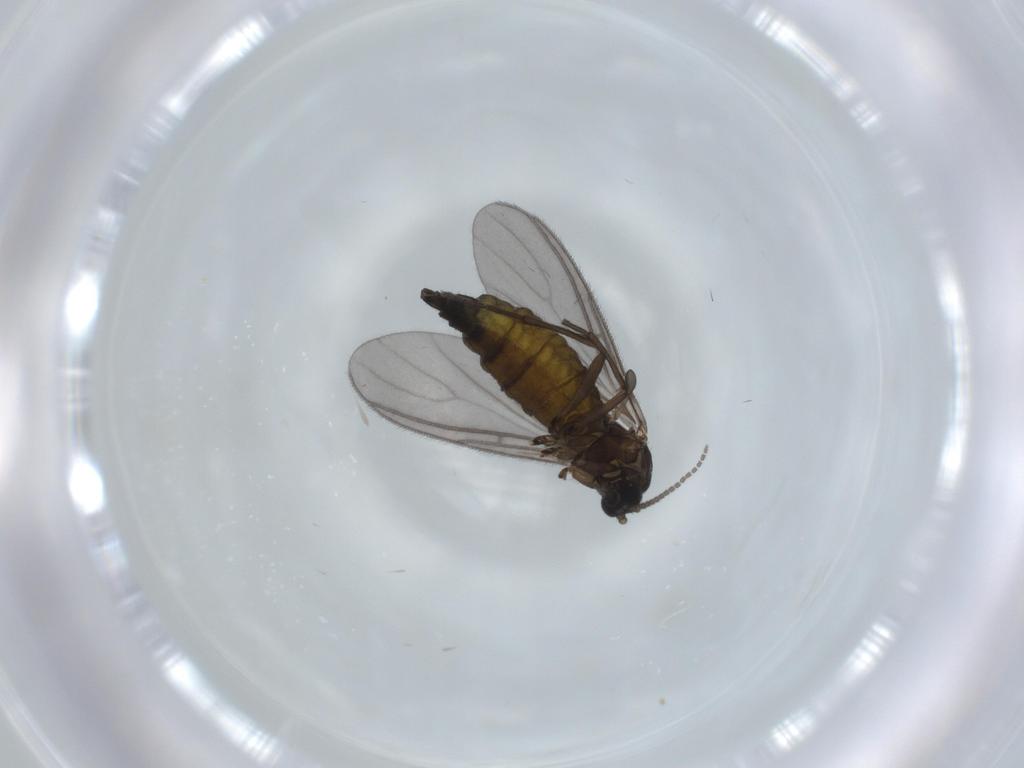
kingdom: Animalia
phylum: Arthropoda
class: Insecta
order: Diptera
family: Sciaridae
